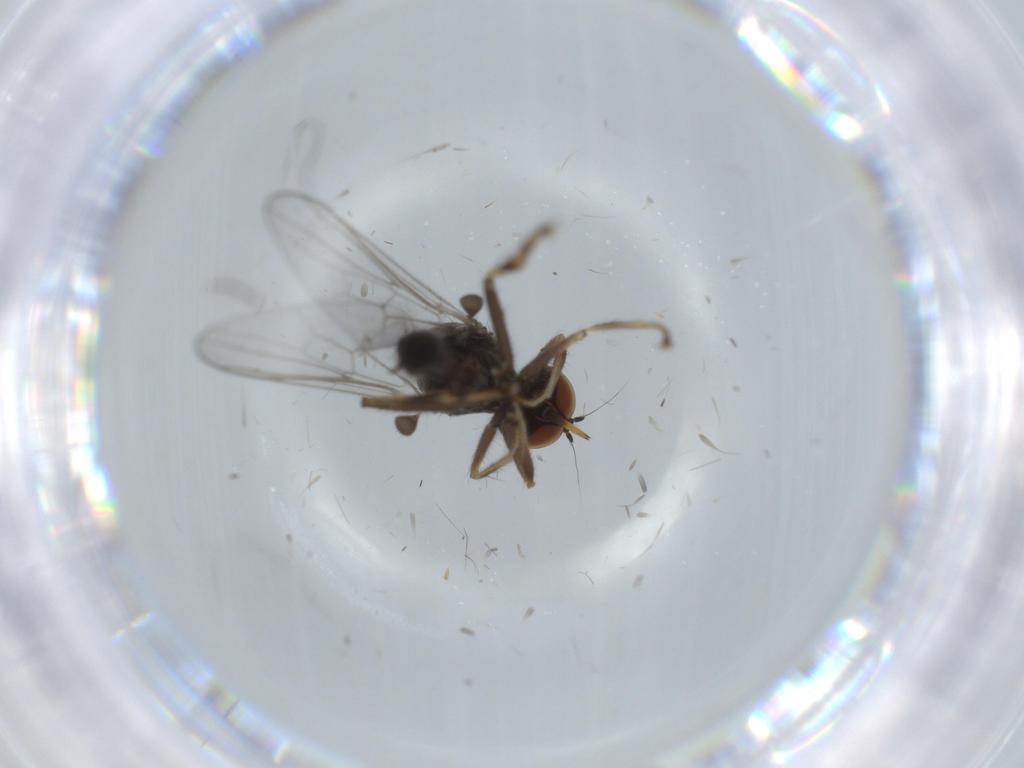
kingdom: Animalia
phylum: Arthropoda
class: Insecta
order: Diptera
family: Hybotidae
